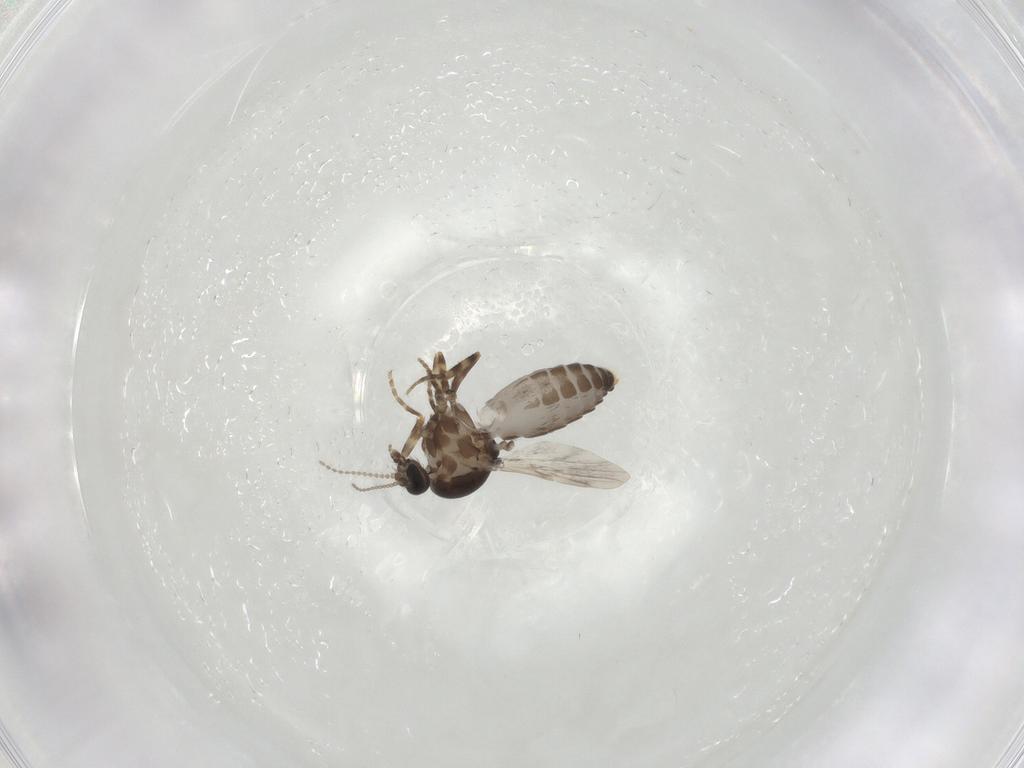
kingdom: Animalia
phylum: Arthropoda
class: Insecta
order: Diptera
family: Ceratopogonidae
